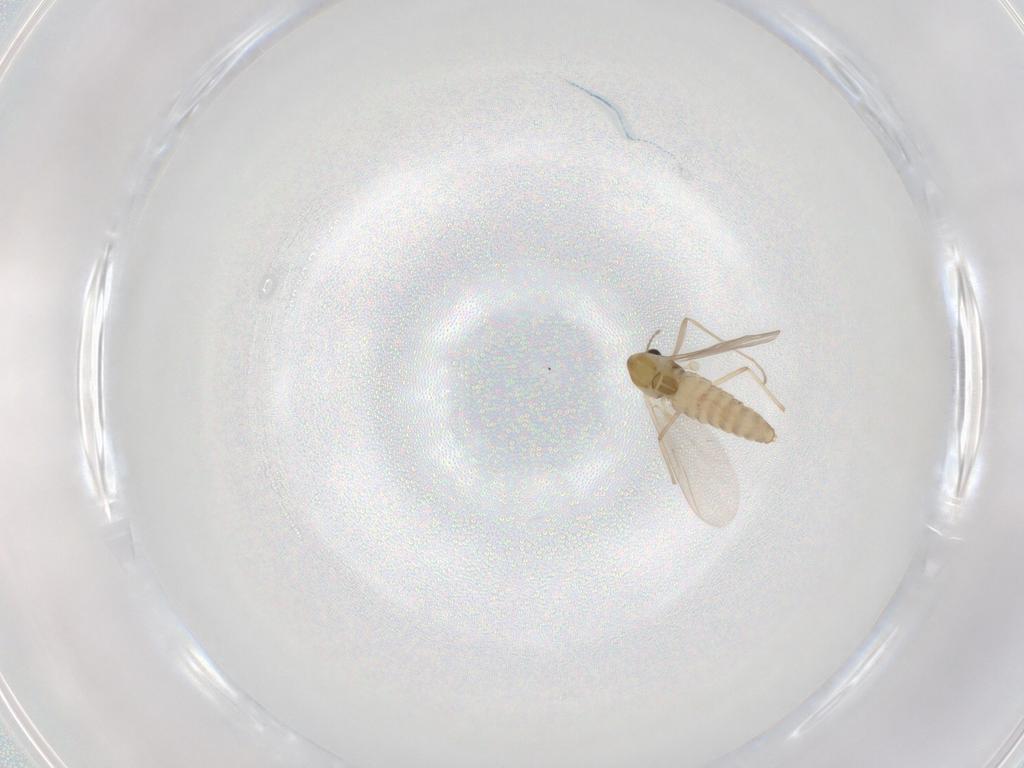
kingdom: Animalia
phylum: Arthropoda
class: Insecta
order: Diptera
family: Chironomidae
